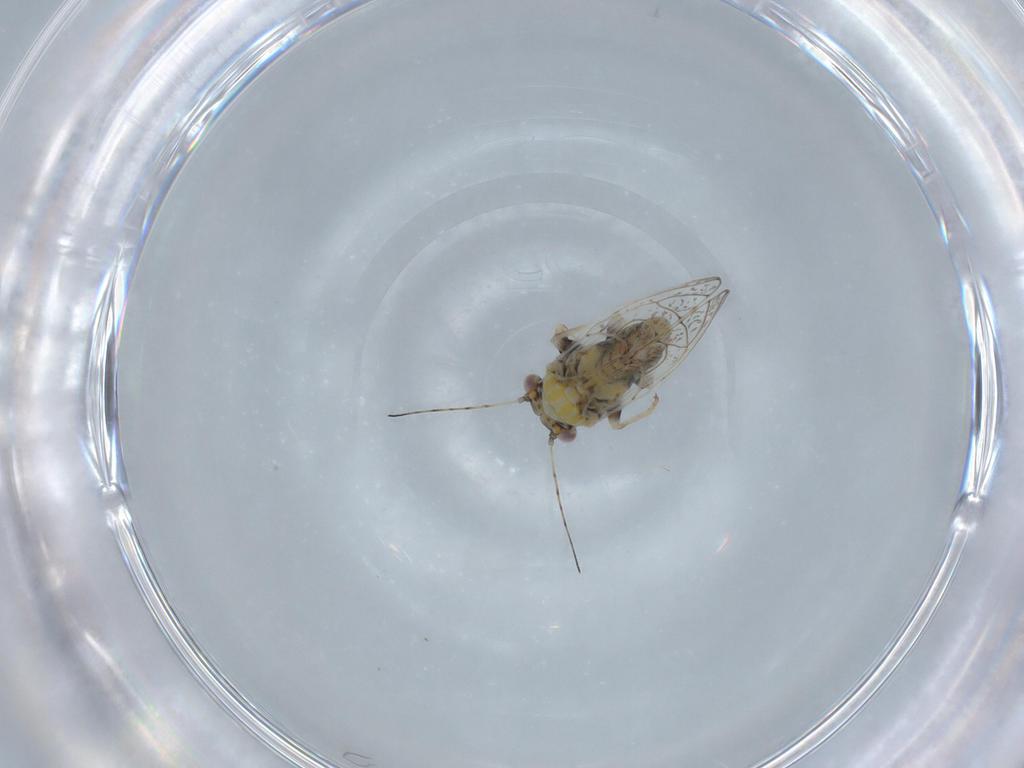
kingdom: Animalia
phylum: Arthropoda
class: Insecta
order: Hemiptera
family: Psyllidae
